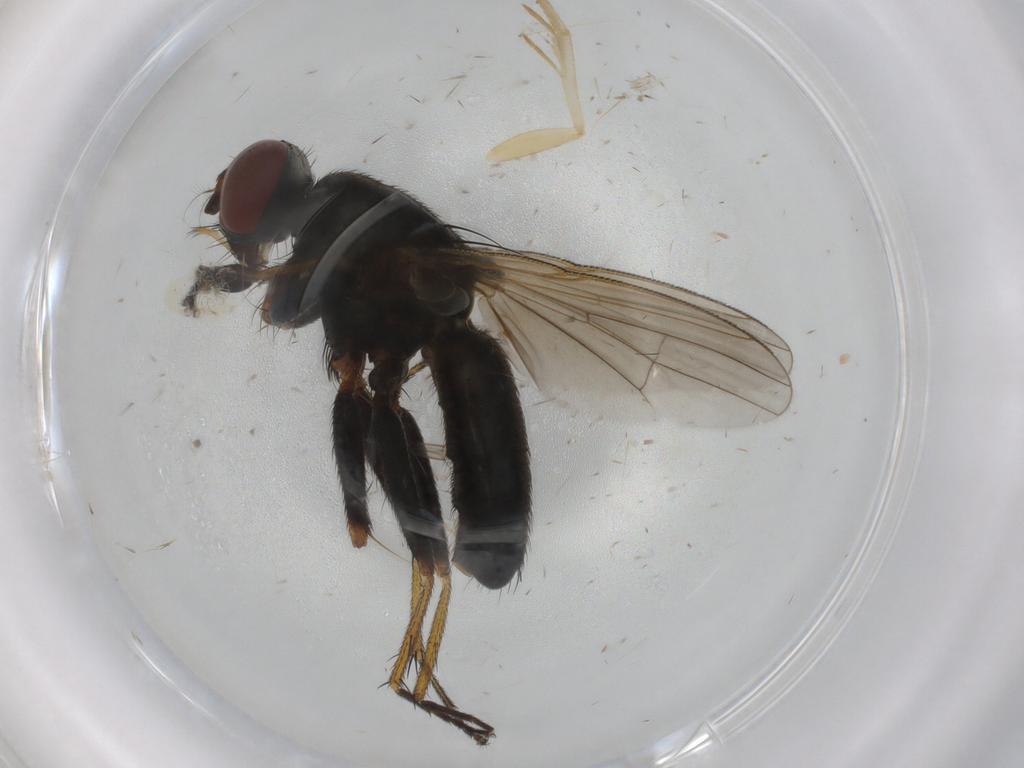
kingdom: Animalia
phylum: Arthropoda
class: Insecta
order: Diptera
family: Muscidae
